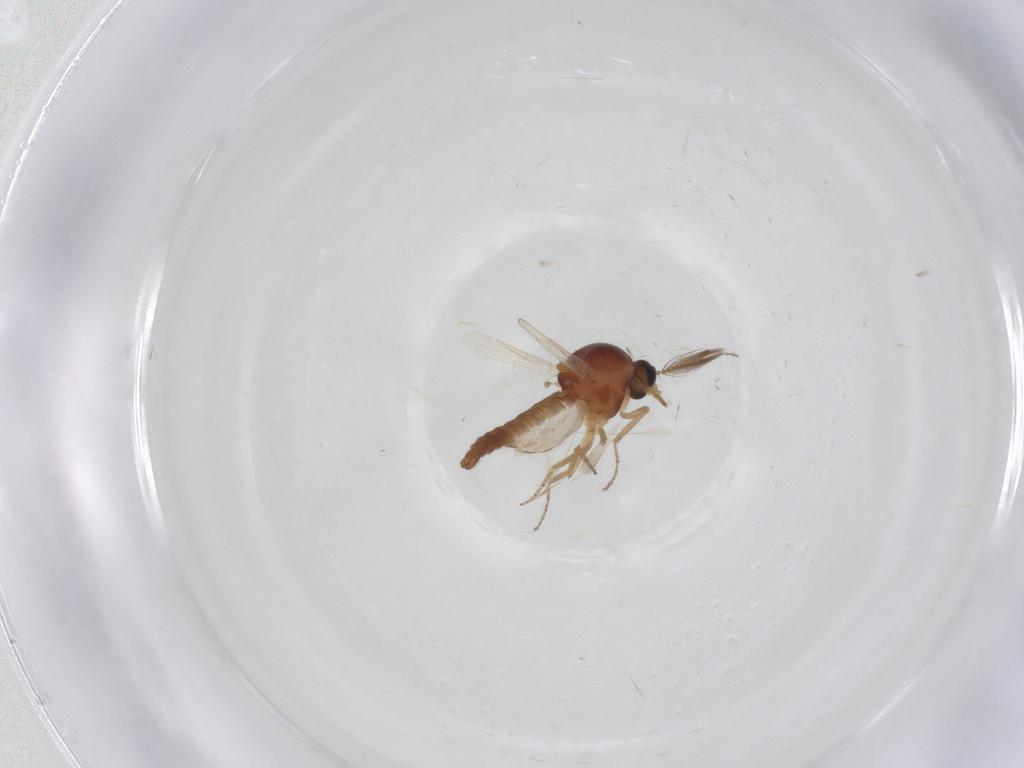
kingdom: Animalia
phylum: Arthropoda
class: Insecta
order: Diptera
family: Ceratopogonidae
